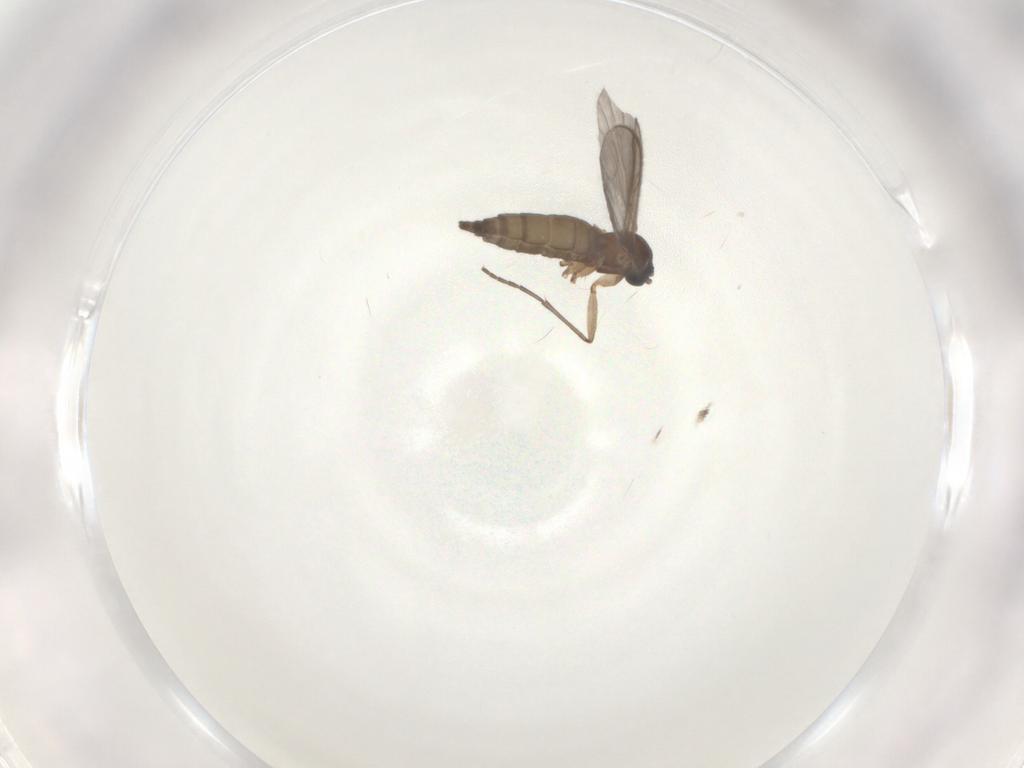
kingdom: Animalia
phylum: Arthropoda
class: Insecta
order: Diptera
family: Sciaridae
